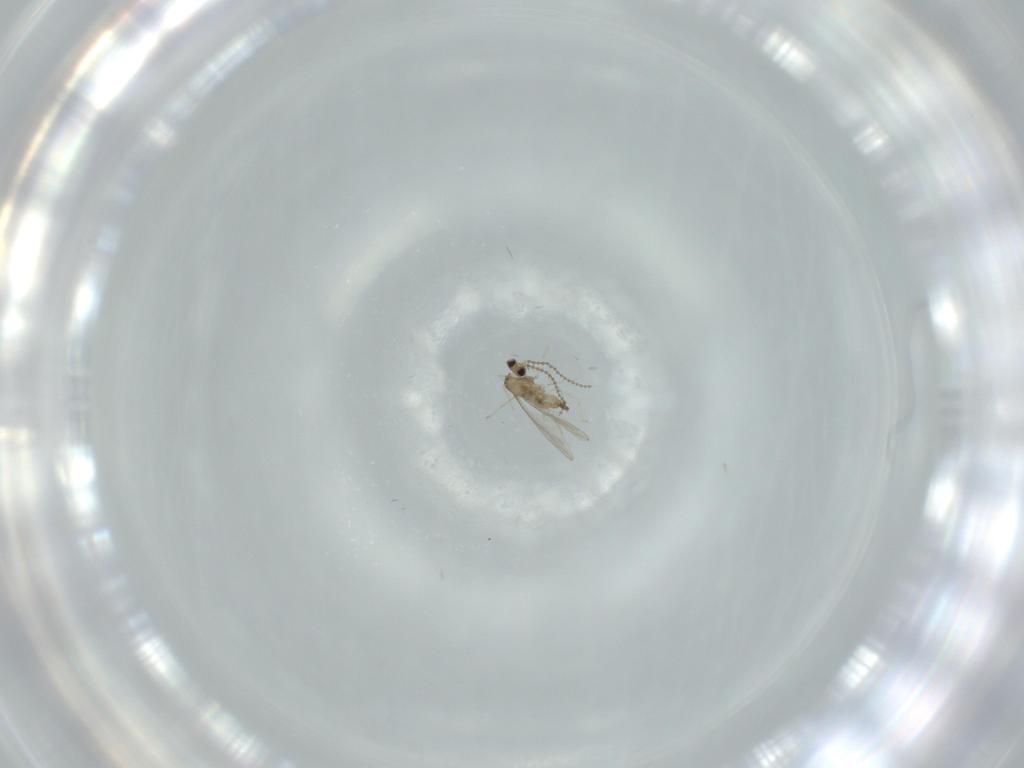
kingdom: Animalia
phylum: Arthropoda
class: Insecta
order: Diptera
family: Cecidomyiidae
